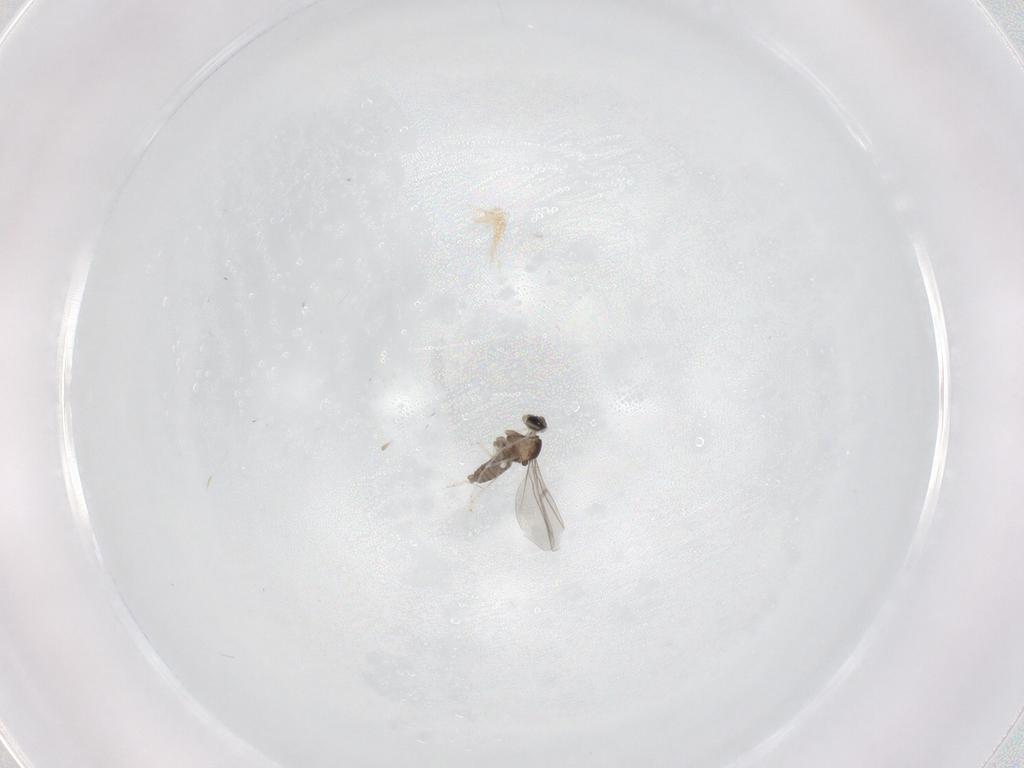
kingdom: Animalia
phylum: Arthropoda
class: Insecta
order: Diptera
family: Cecidomyiidae
